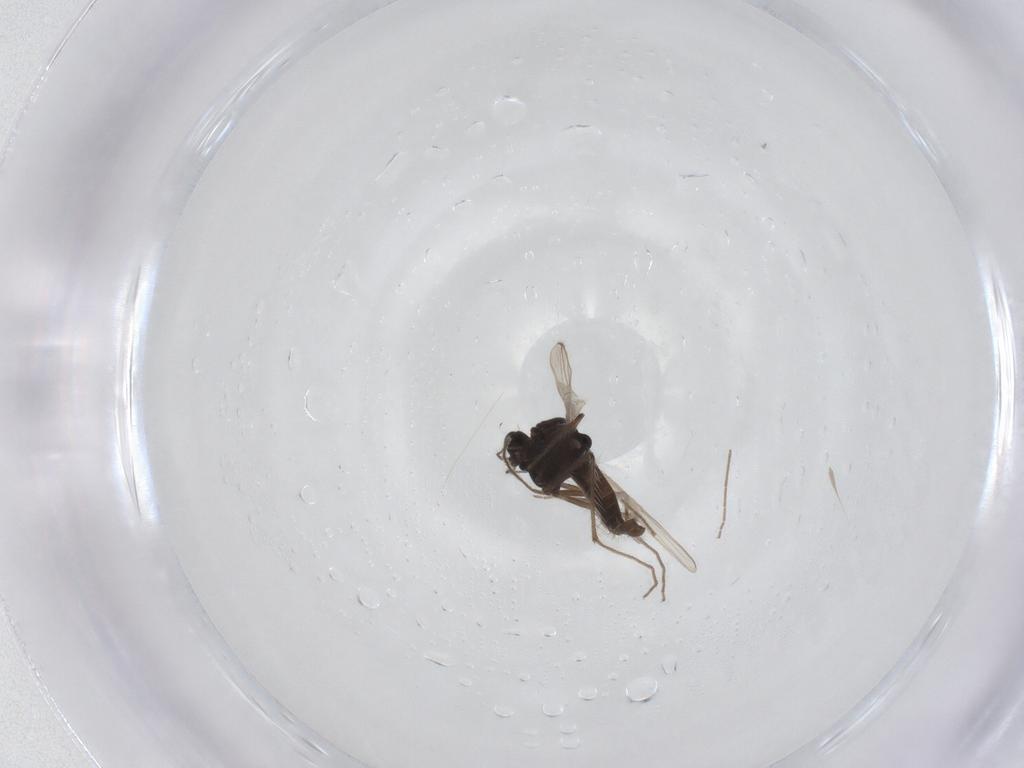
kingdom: Animalia
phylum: Arthropoda
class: Insecta
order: Diptera
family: Chironomidae
